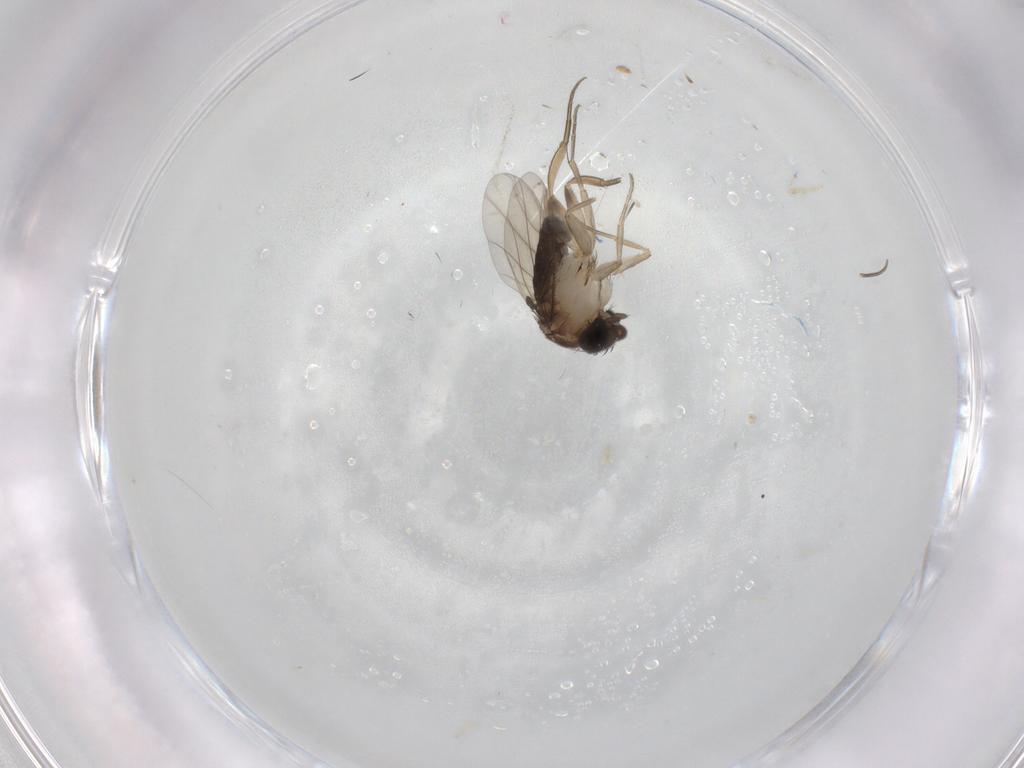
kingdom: Animalia
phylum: Arthropoda
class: Insecta
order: Diptera
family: Phoridae
